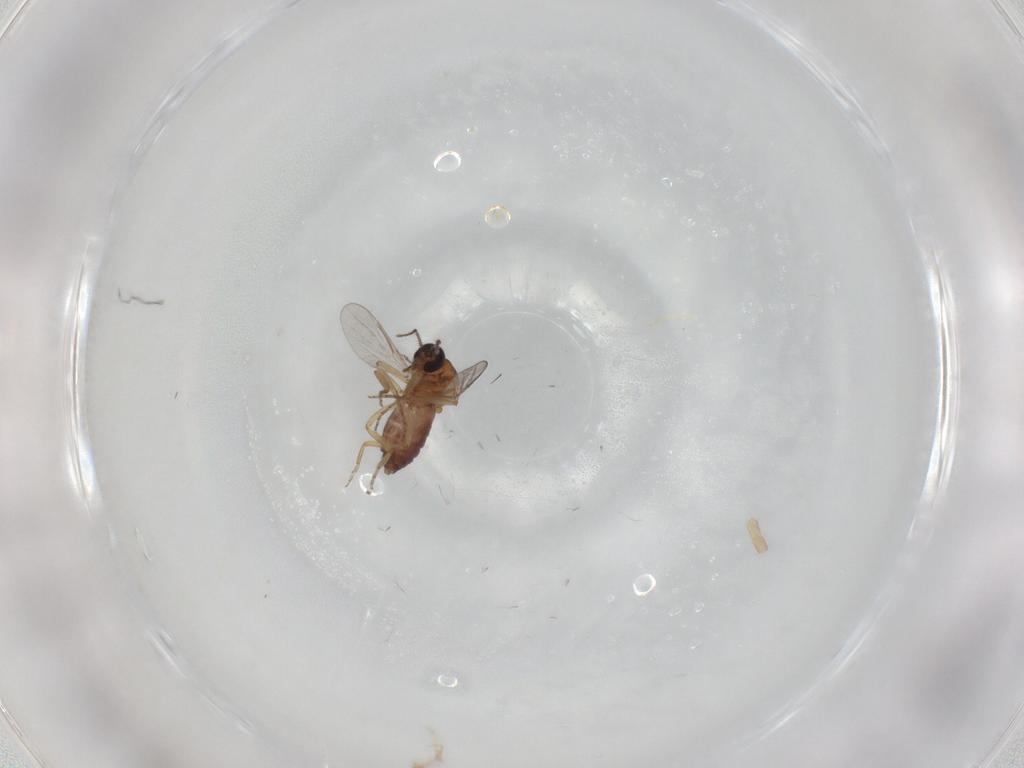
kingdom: Animalia
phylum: Arthropoda
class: Insecta
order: Diptera
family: Ceratopogonidae
